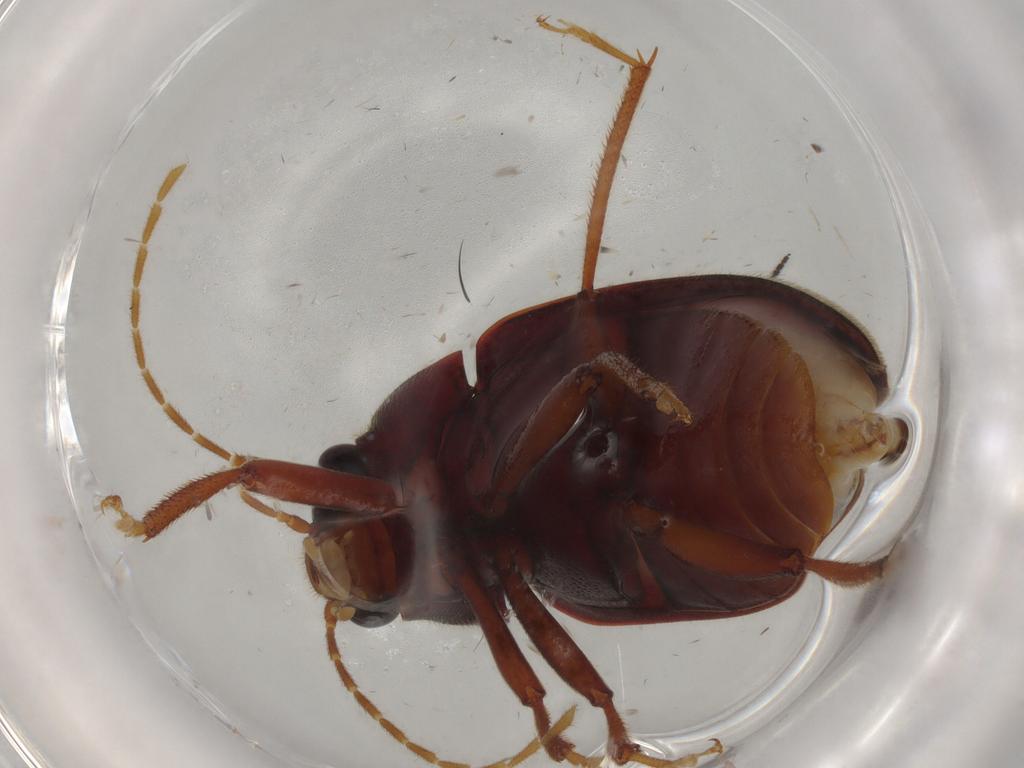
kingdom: Animalia
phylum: Arthropoda
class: Insecta
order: Coleoptera
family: Ptilodactylidae
